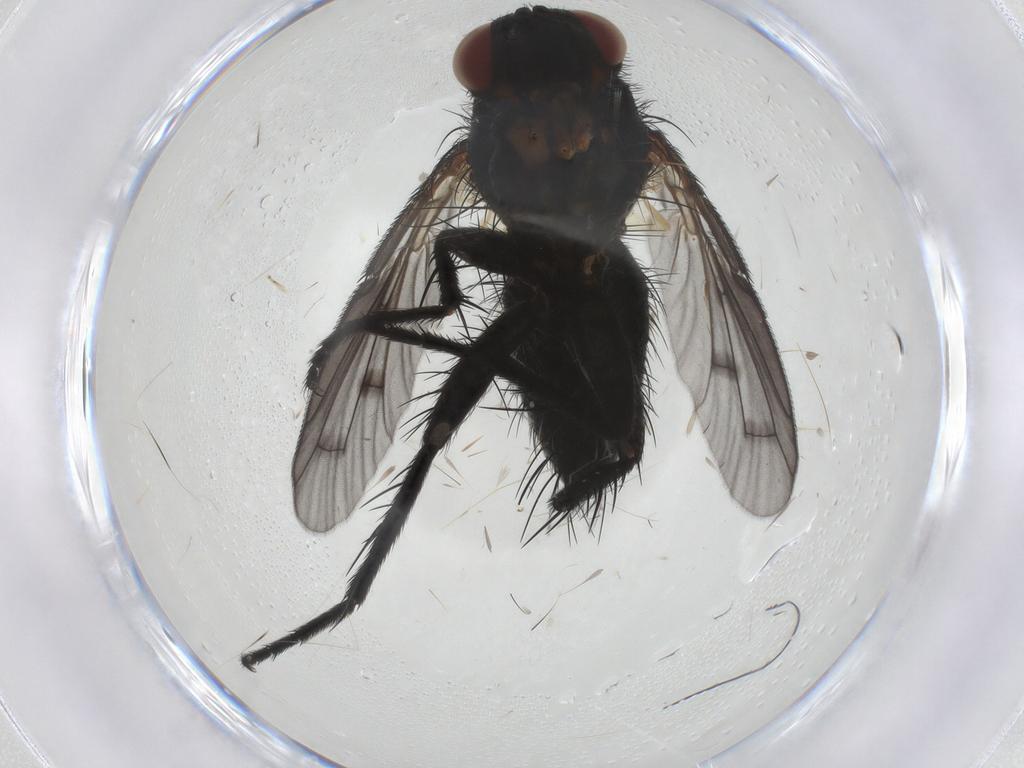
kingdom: Animalia
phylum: Arthropoda
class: Insecta
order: Diptera
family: Tachinidae
